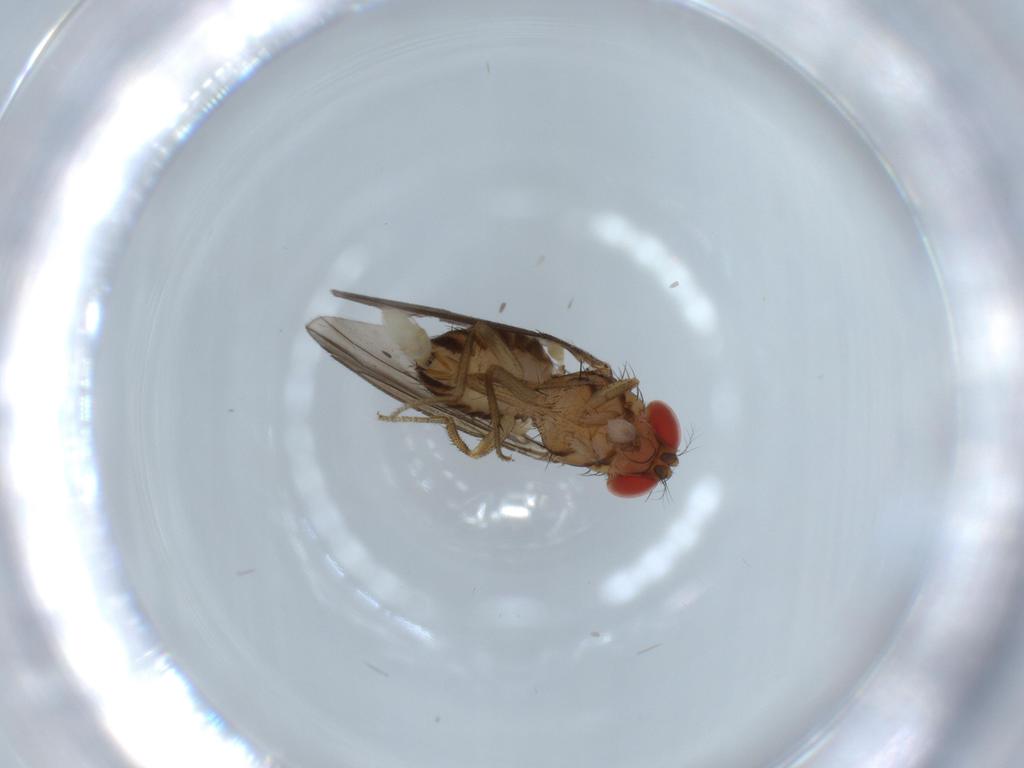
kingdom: Animalia
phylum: Arthropoda
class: Insecta
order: Diptera
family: Drosophilidae
